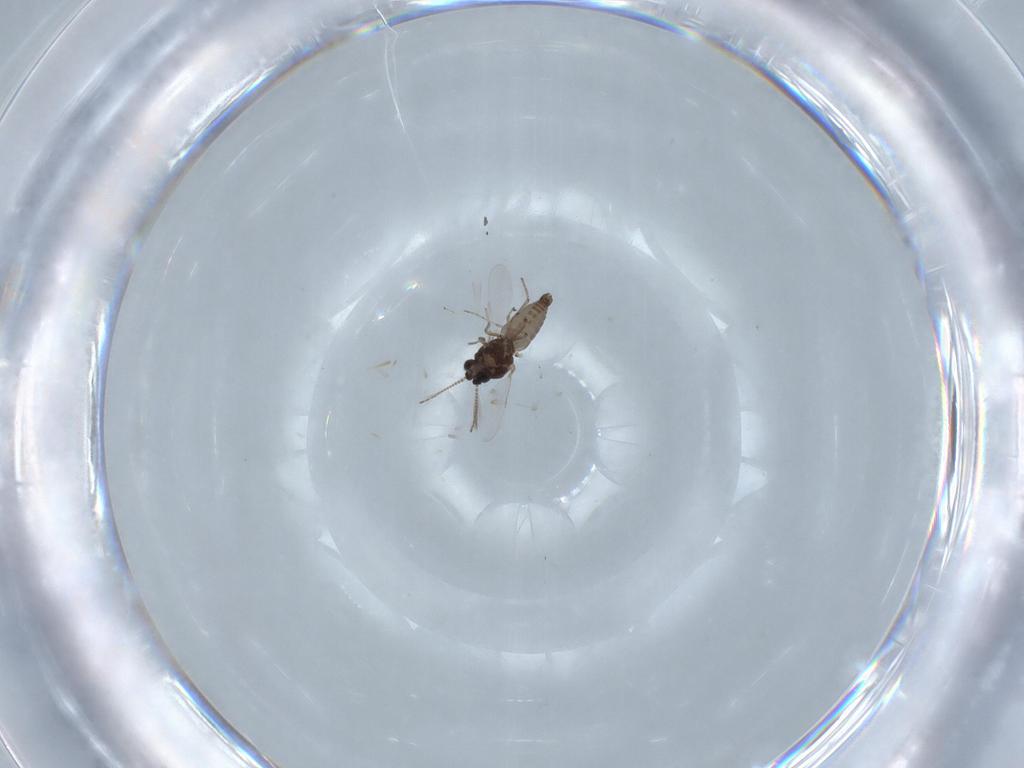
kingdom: Animalia
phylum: Arthropoda
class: Insecta
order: Diptera
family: Ceratopogonidae
